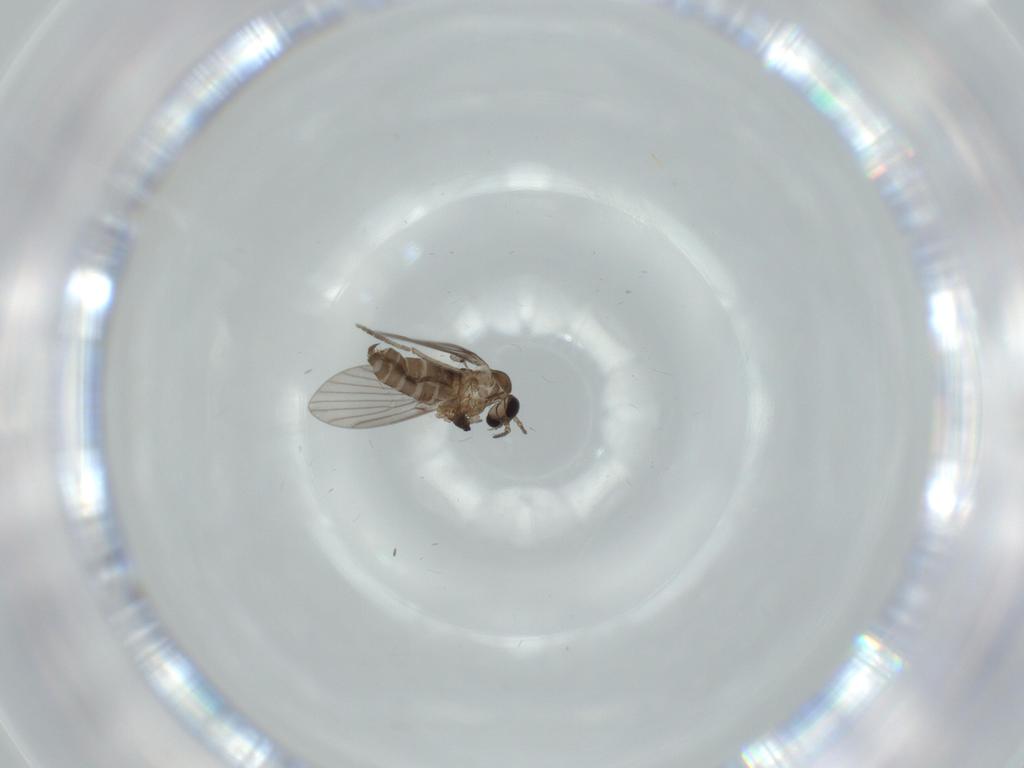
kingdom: Animalia
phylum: Arthropoda
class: Insecta
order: Diptera
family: Psychodidae
